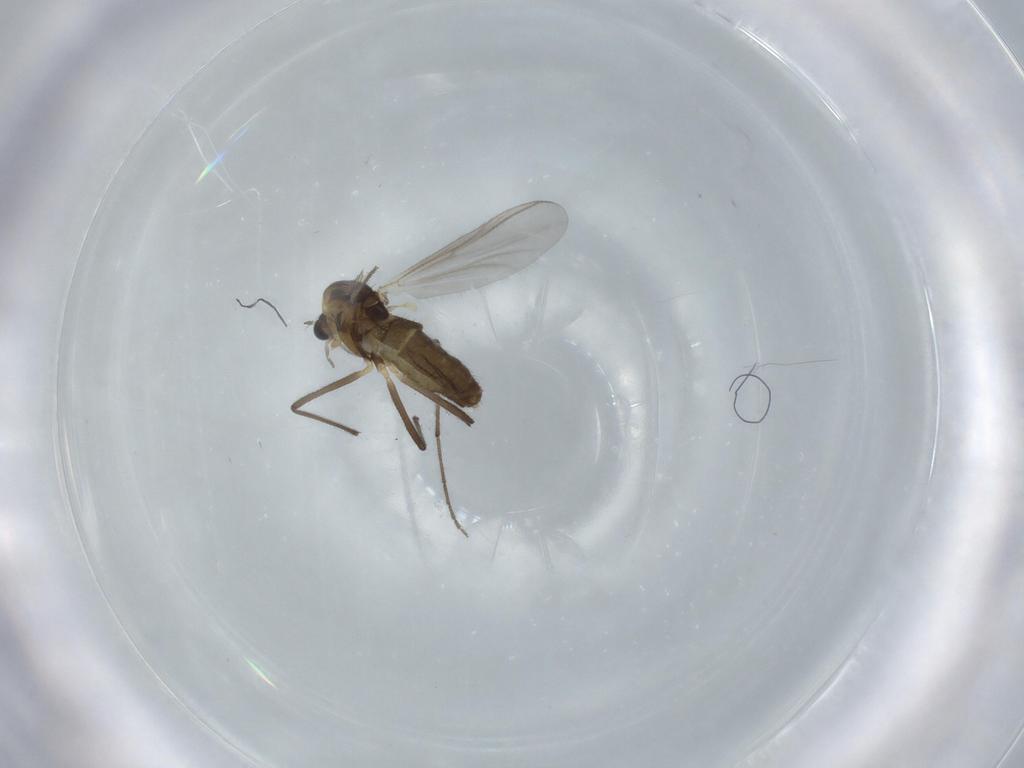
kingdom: Animalia
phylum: Arthropoda
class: Insecta
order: Diptera
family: Chironomidae
